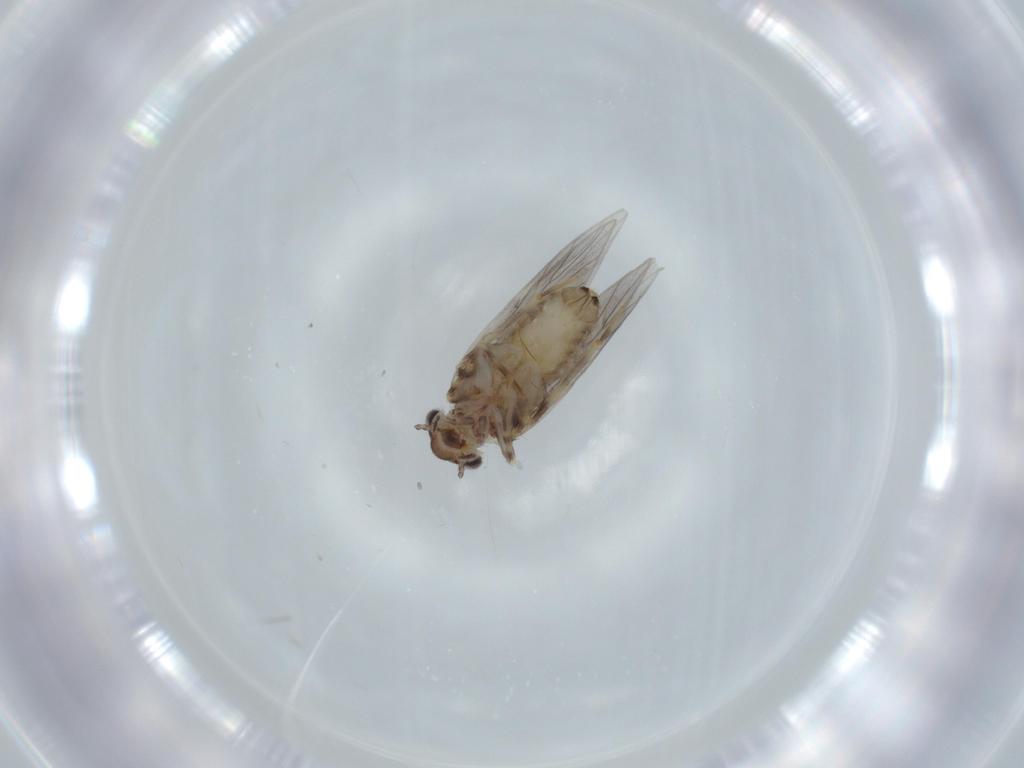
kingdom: Animalia
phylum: Arthropoda
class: Insecta
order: Psocodea
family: Lepidopsocidae
